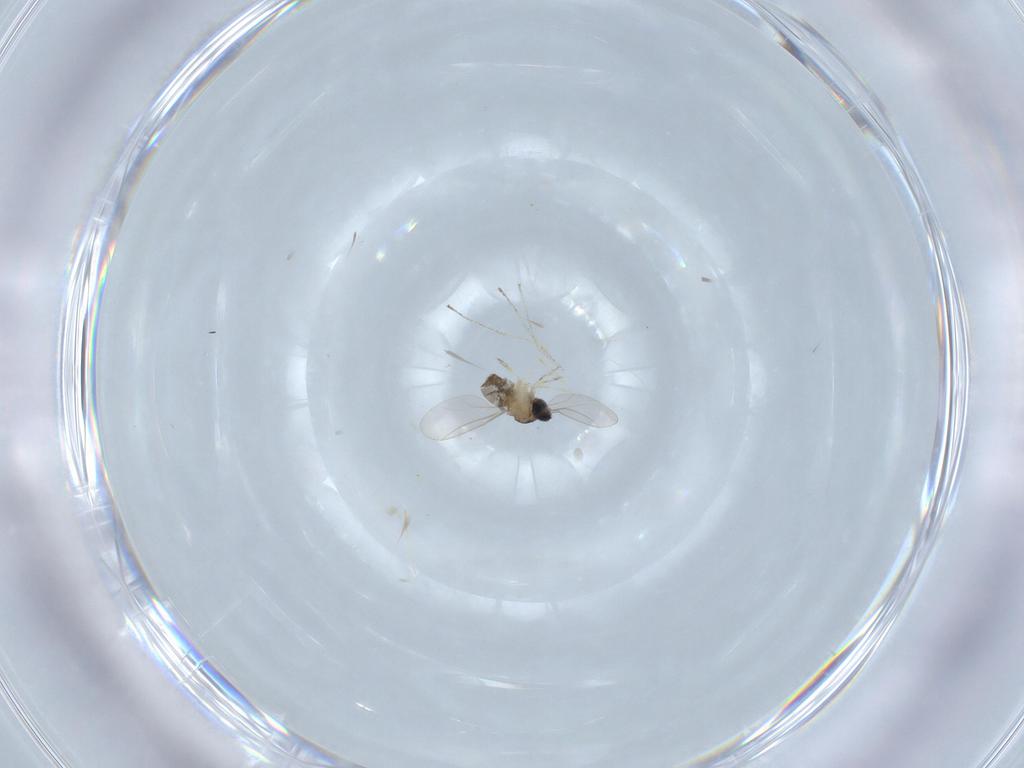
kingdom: Animalia
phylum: Arthropoda
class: Insecta
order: Diptera
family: Cecidomyiidae
